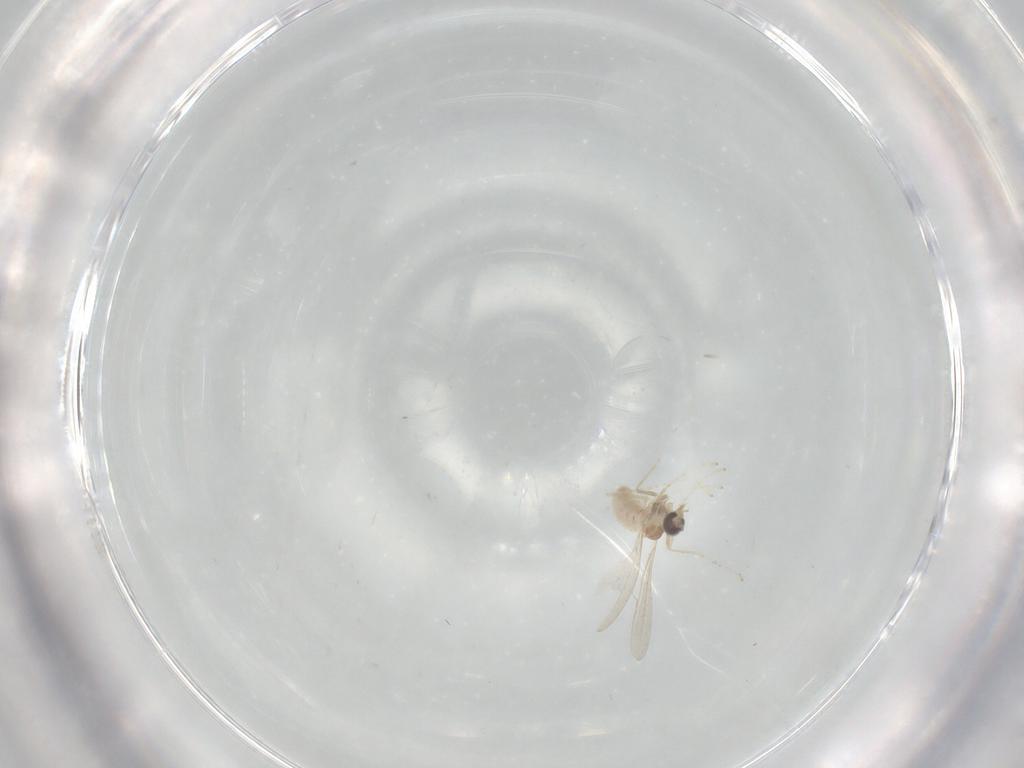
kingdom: Animalia
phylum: Arthropoda
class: Insecta
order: Diptera
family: Cecidomyiidae
